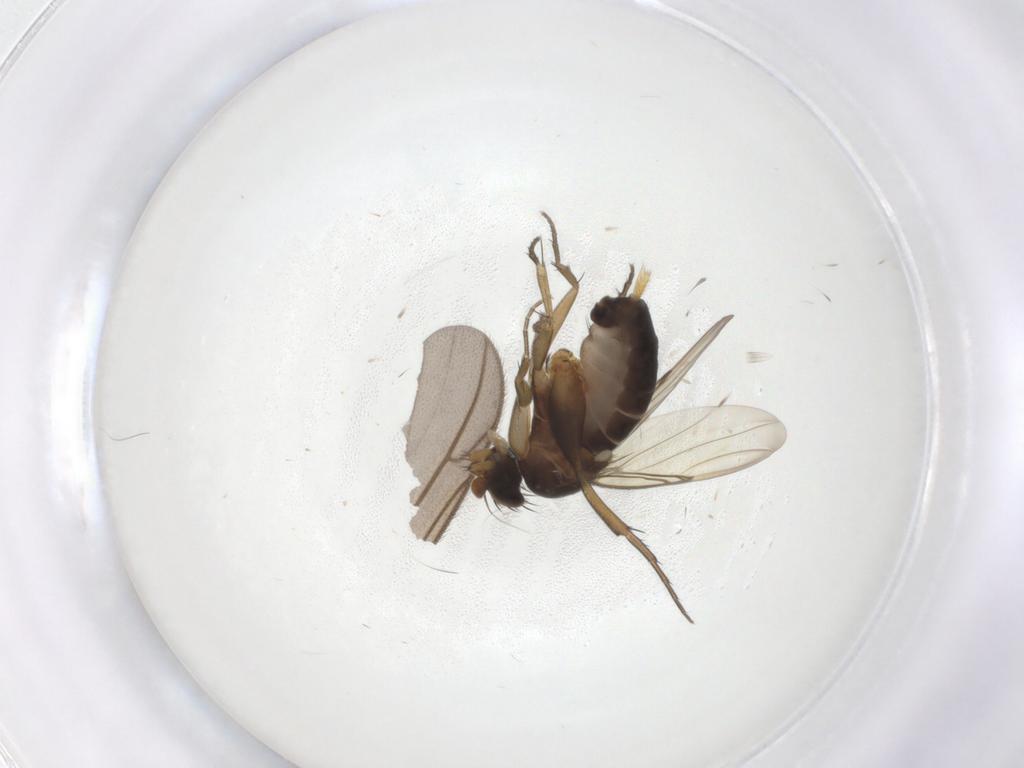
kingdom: Animalia
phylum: Arthropoda
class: Insecta
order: Diptera
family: Phoridae
